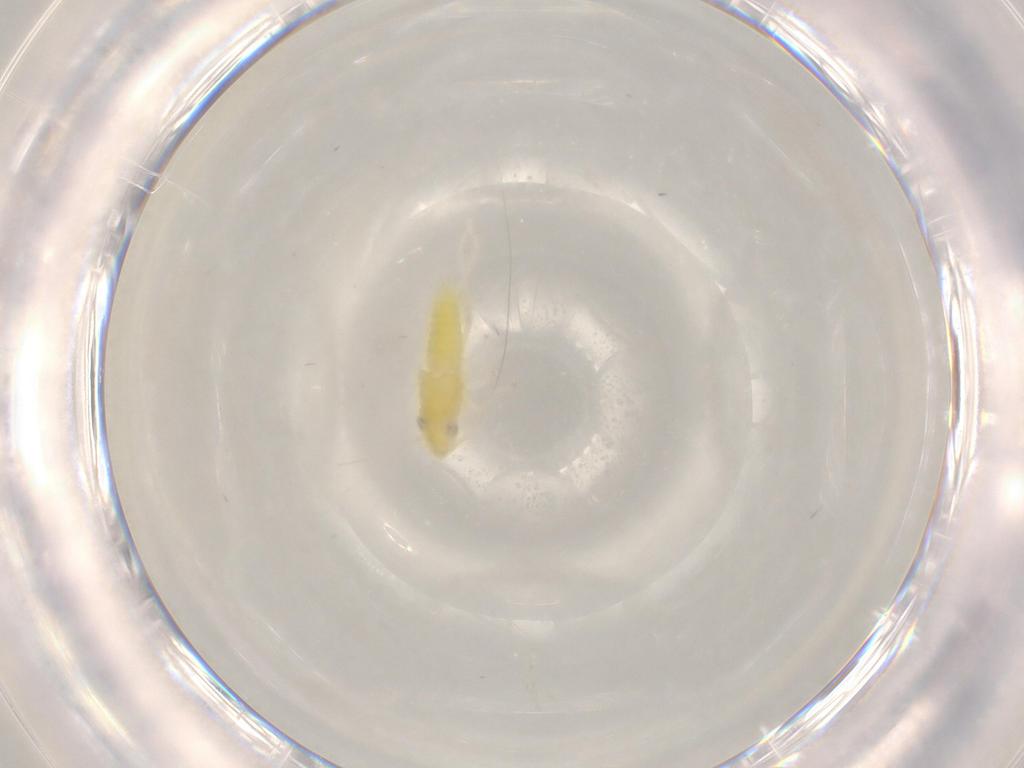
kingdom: Animalia
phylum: Arthropoda
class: Insecta
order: Hemiptera
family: Cicadellidae
